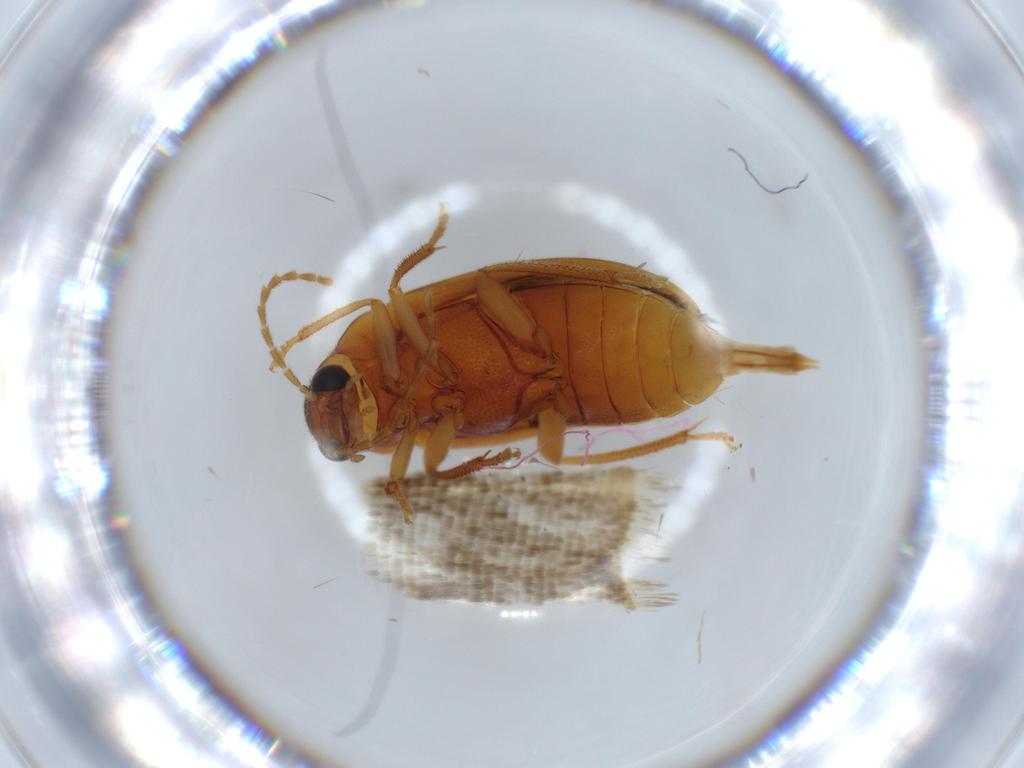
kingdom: Animalia
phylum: Arthropoda
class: Insecta
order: Coleoptera
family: Ptilodactylidae
